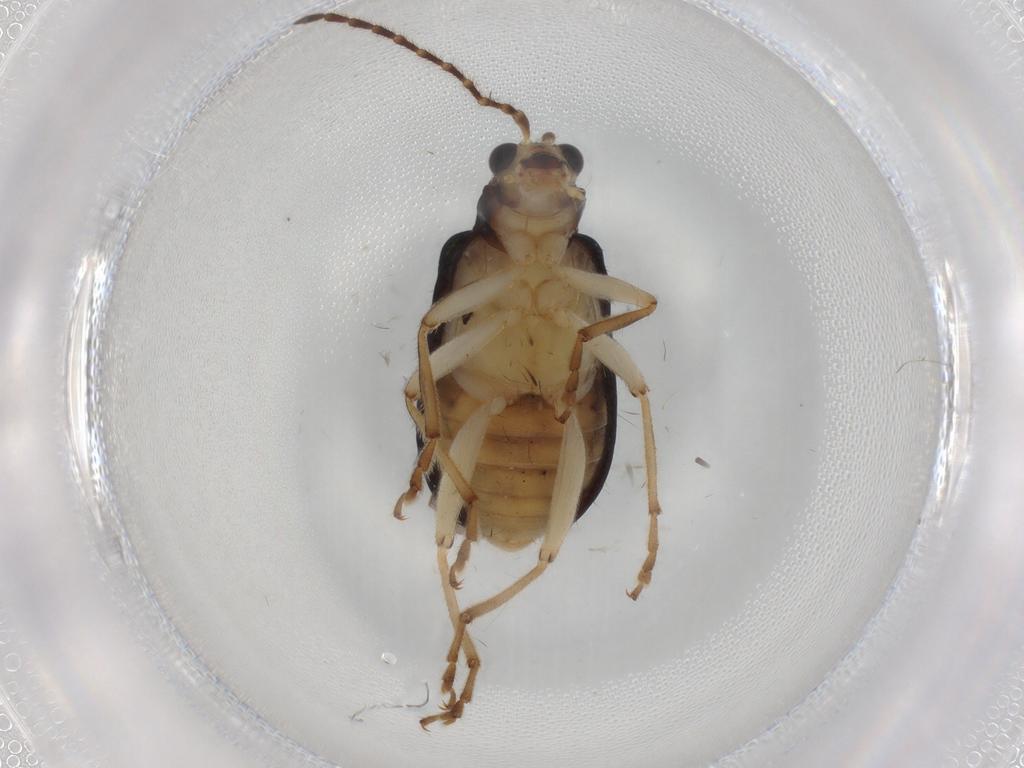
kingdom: Animalia
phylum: Arthropoda
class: Insecta
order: Coleoptera
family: Chrysomelidae
